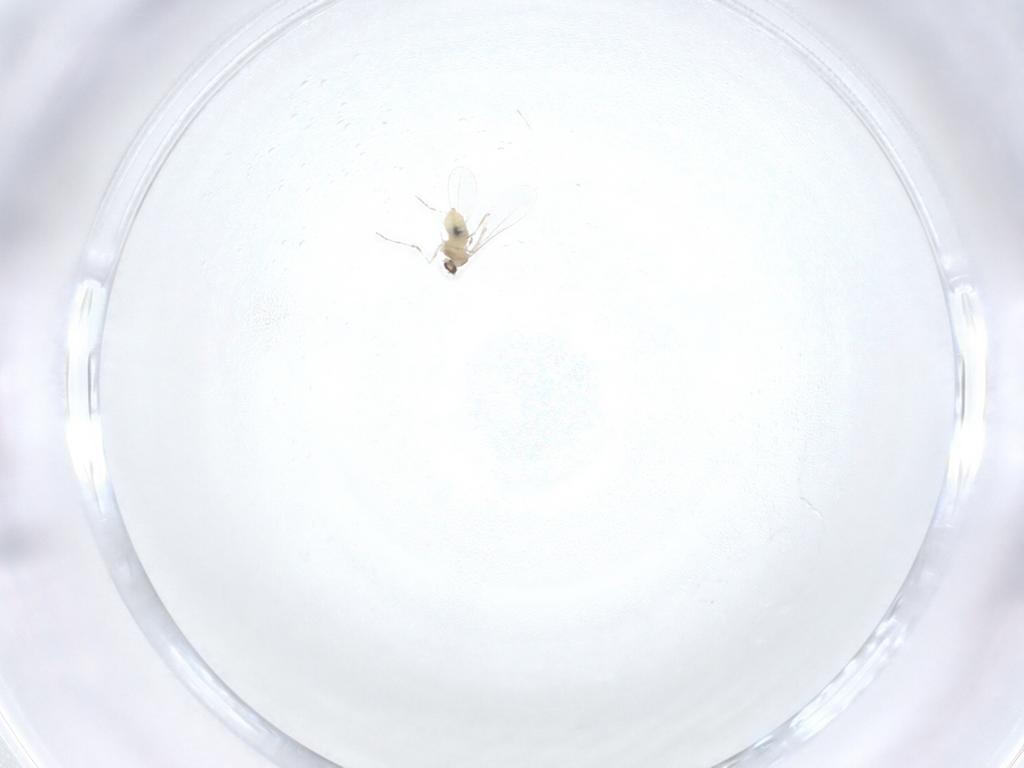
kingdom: Animalia
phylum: Arthropoda
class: Insecta
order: Diptera
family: Cecidomyiidae
